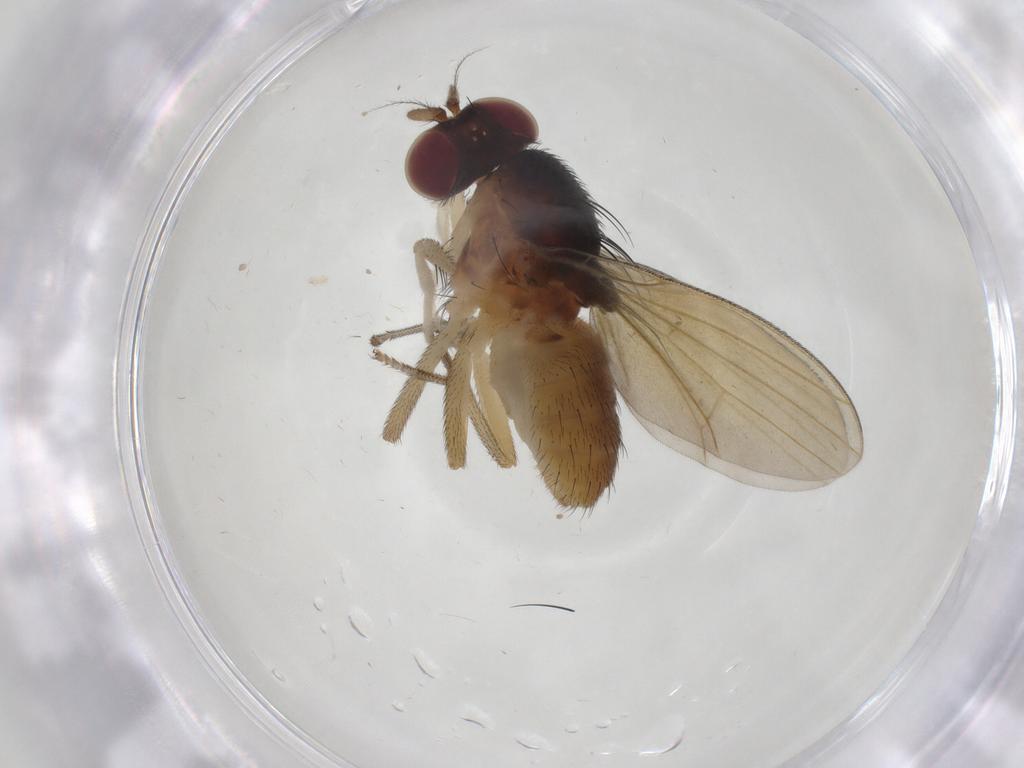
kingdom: Animalia
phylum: Arthropoda
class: Insecta
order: Diptera
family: Lauxaniidae
